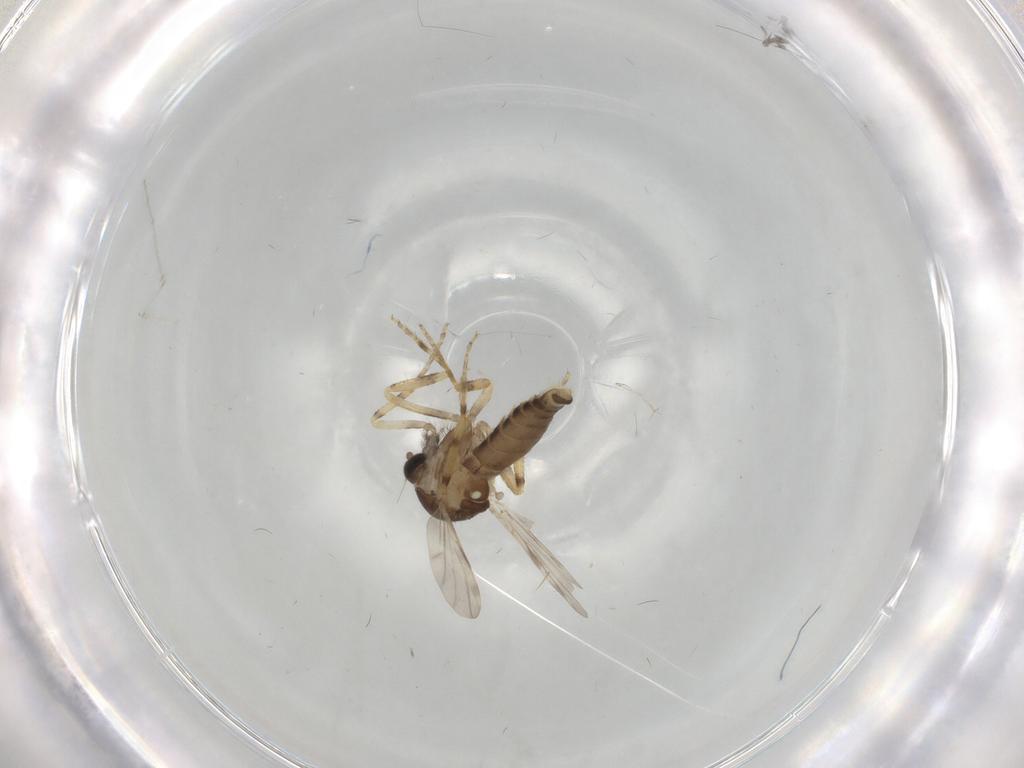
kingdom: Animalia
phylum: Arthropoda
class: Insecta
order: Diptera
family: Ceratopogonidae
